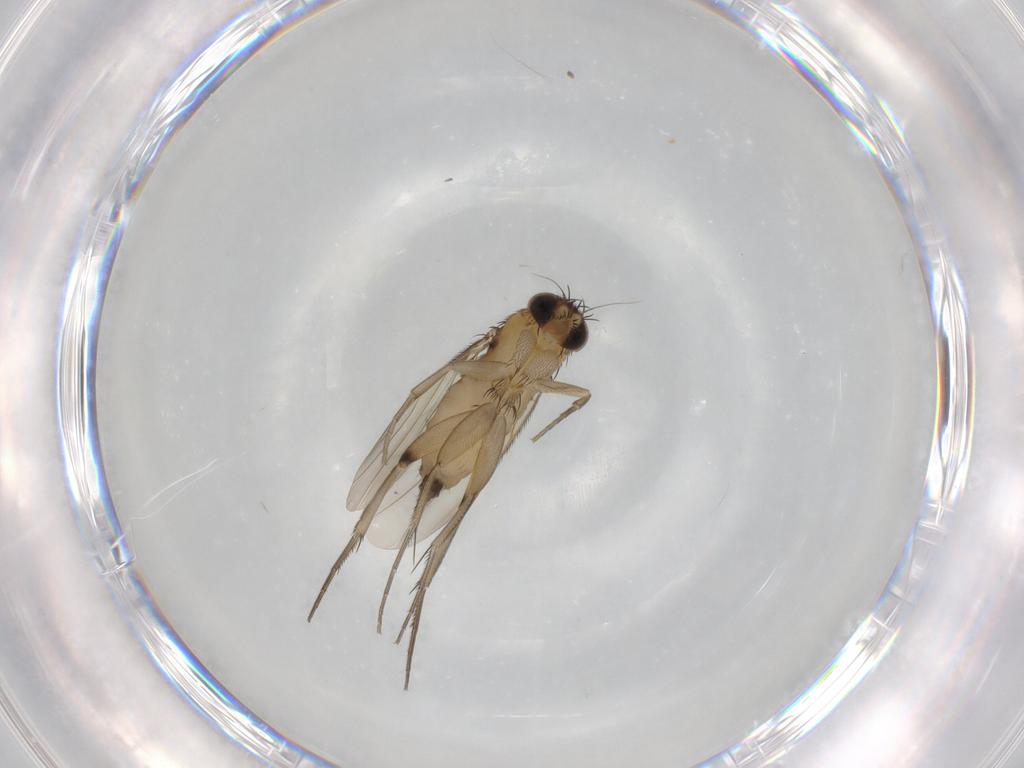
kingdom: Animalia
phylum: Arthropoda
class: Insecta
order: Diptera
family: Phoridae
